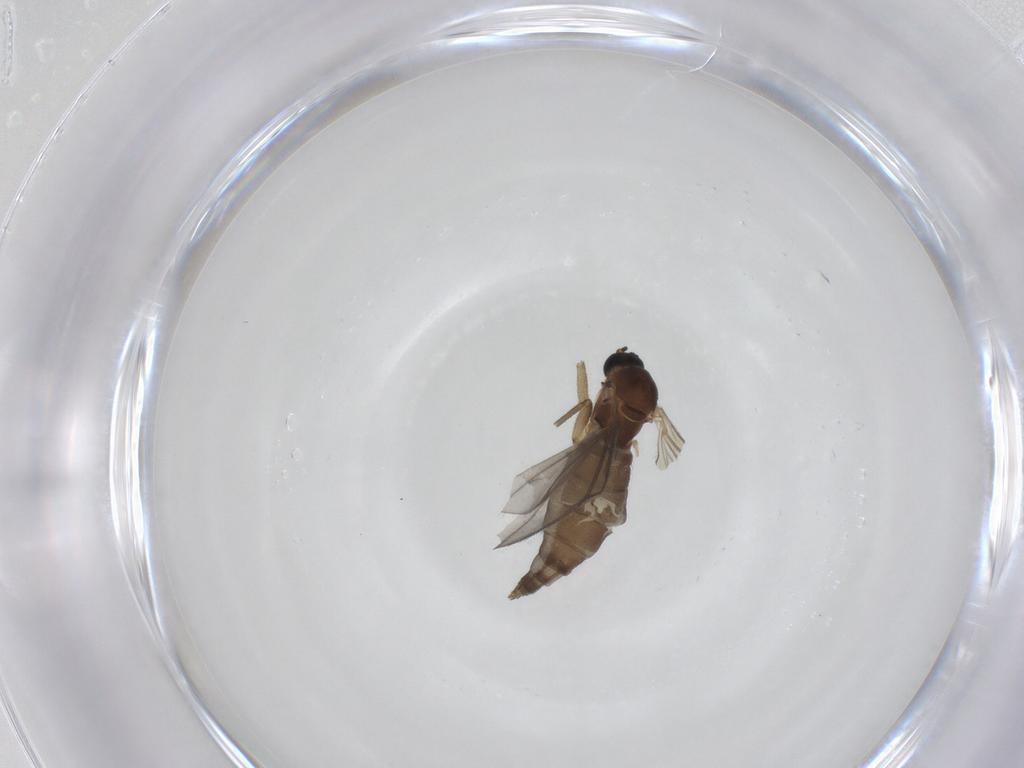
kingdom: Animalia
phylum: Arthropoda
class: Insecta
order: Diptera
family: Sciaridae
